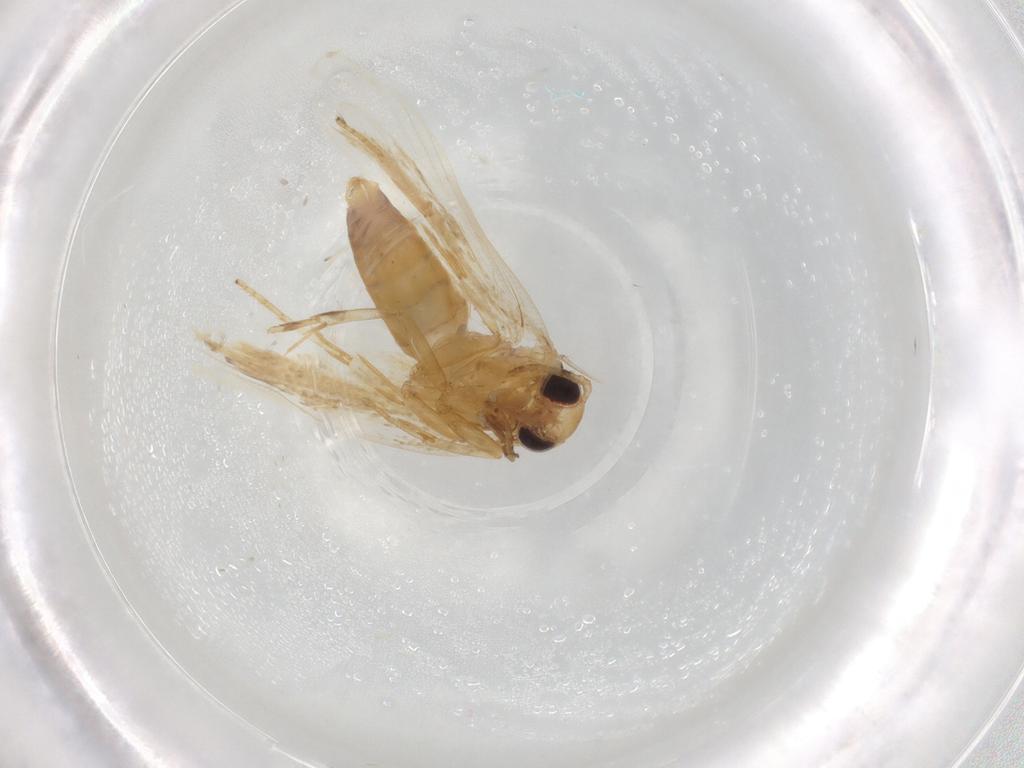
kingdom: Animalia
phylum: Arthropoda
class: Insecta
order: Lepidoptera
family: Depressariidae
